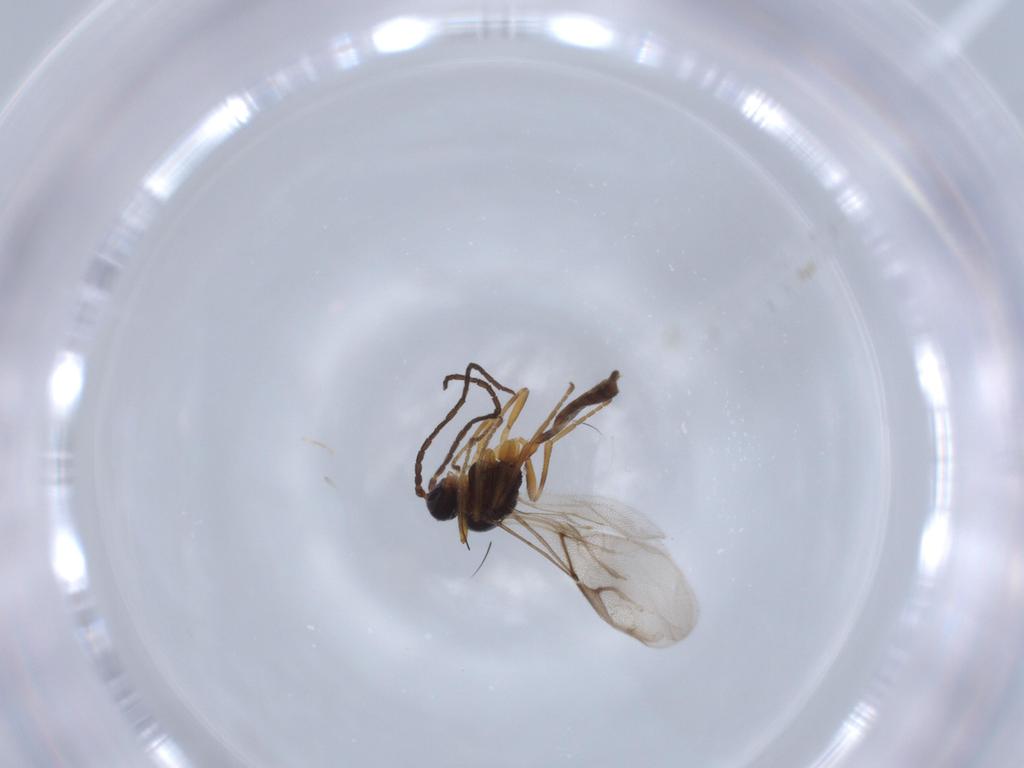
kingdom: Animalia
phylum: Arthropoda
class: Insecta
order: Hymenoptera
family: Braconidae
